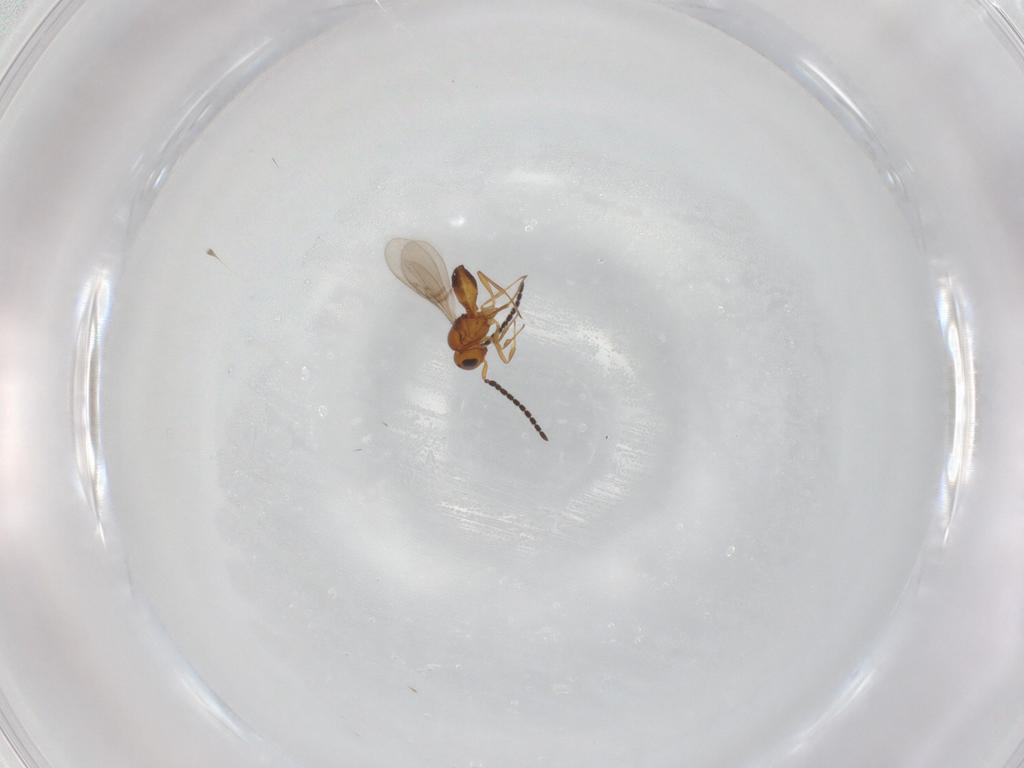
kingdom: Animalia
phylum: Arthropoda
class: Insecta
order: Hymenoptera
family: Scelionidae
